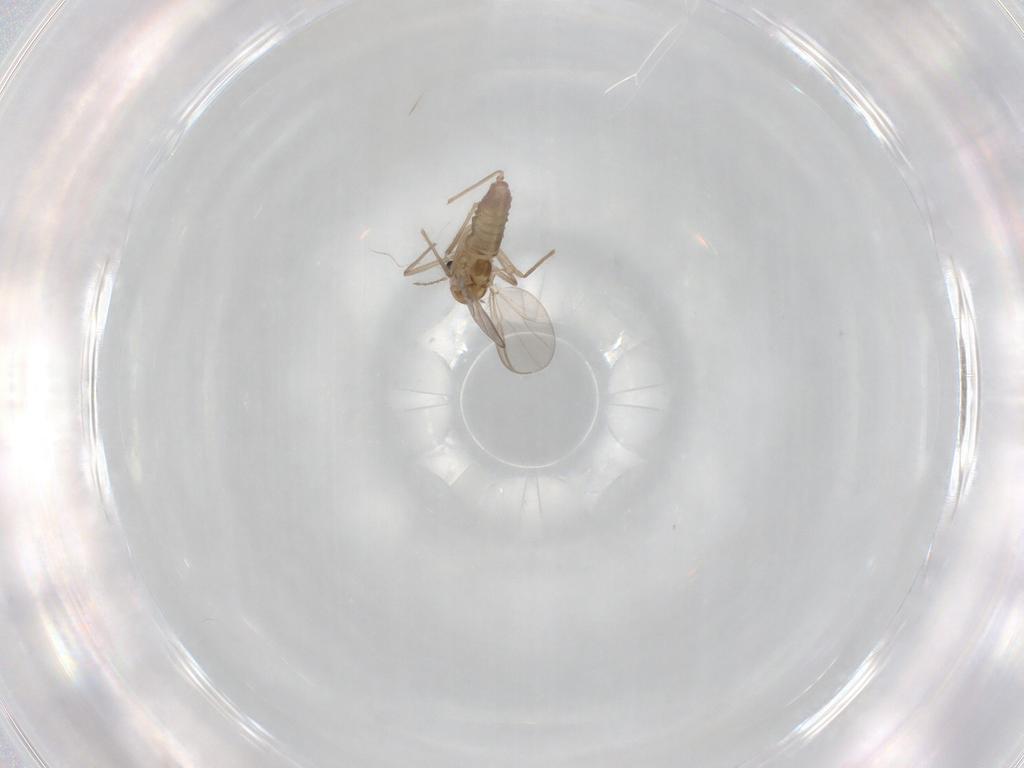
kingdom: Animalia
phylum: Arthropoda
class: Insecta
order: Diptera
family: Chironomidae
